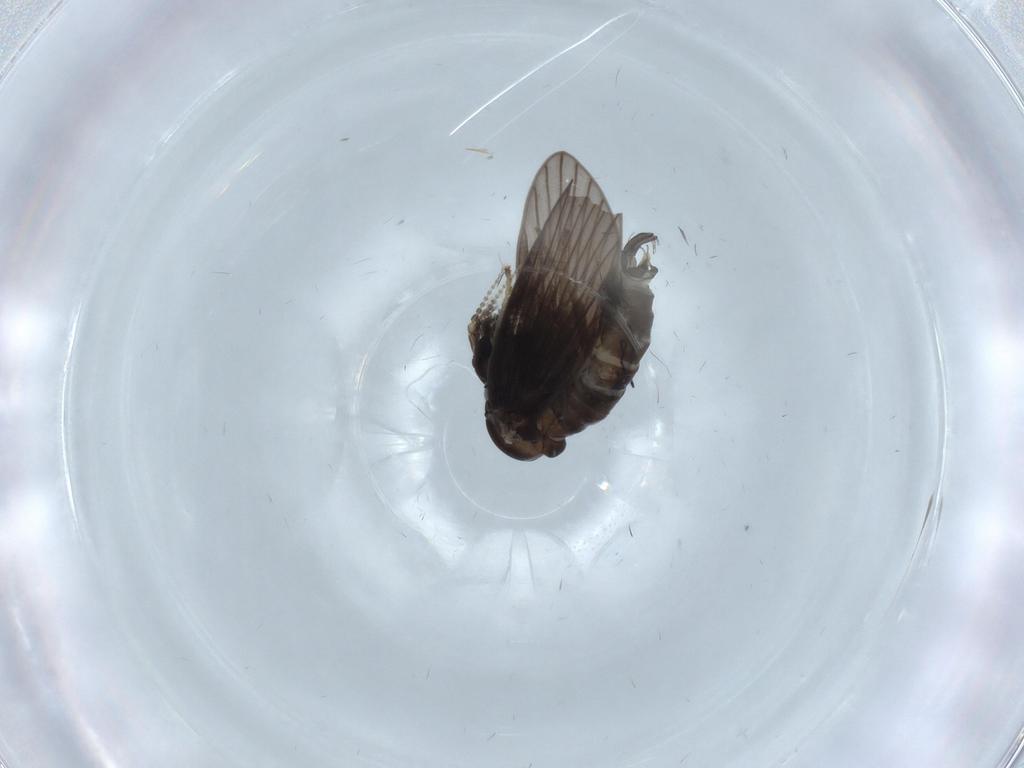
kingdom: Animalia
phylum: Arthropoda
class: Insecta
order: Diptera
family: Psychodidae
